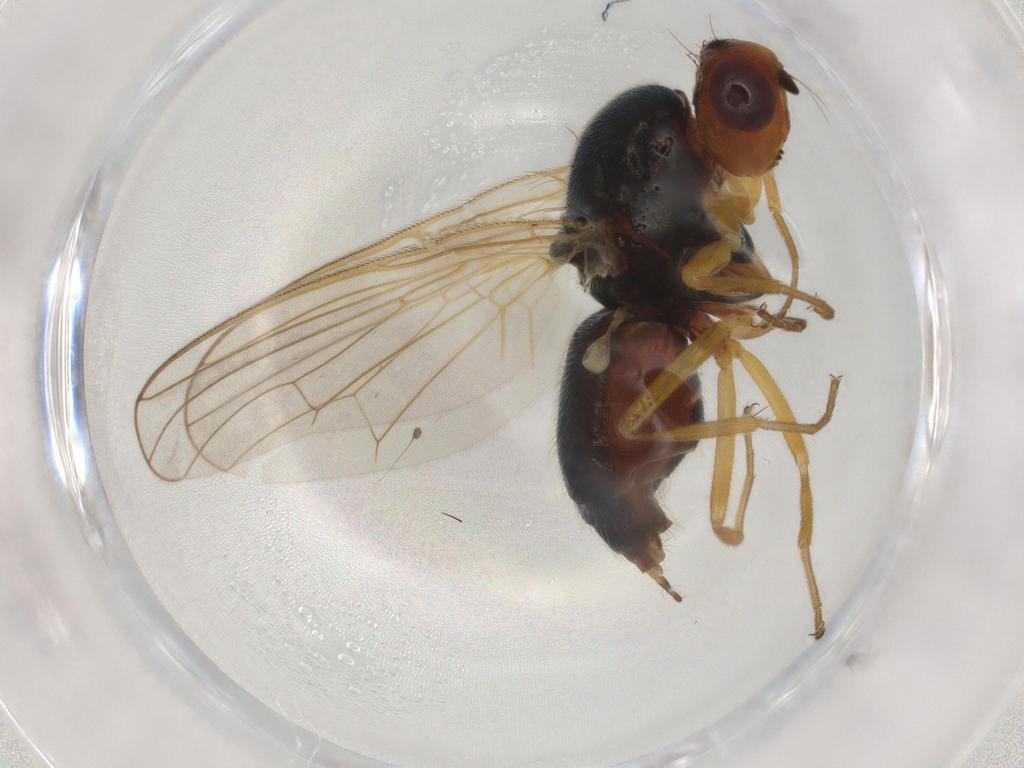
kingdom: Animalia
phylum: Arthropoda
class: Insecta
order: Diptera
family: Hybotidae
